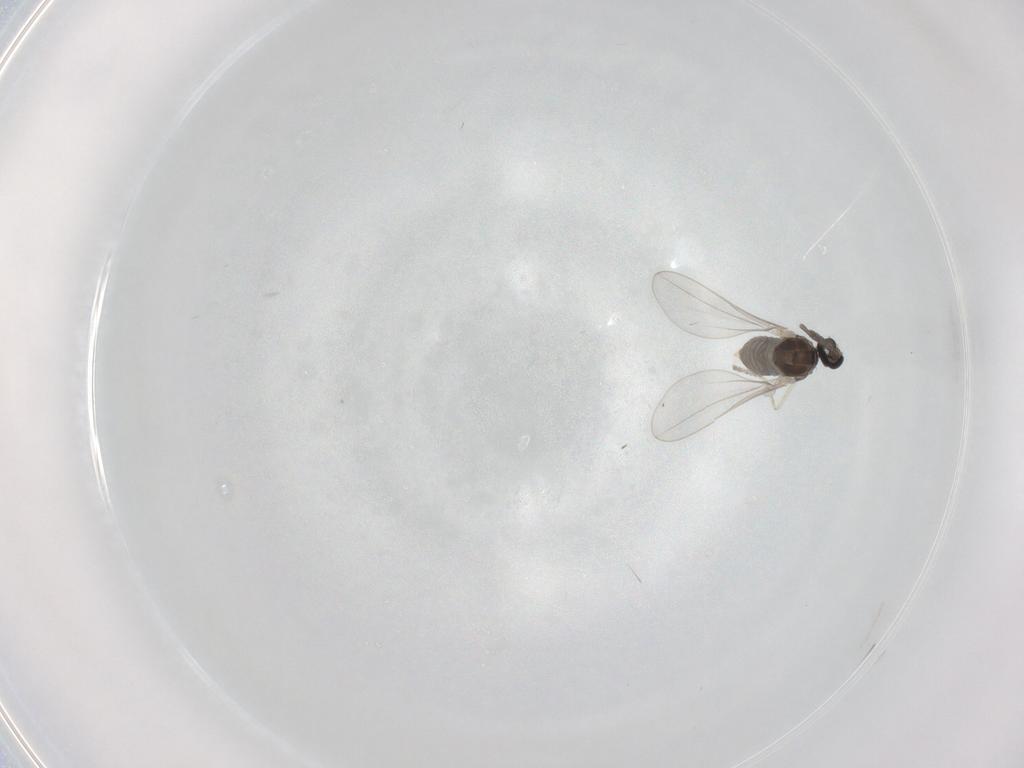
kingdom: Animalia
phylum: Arthropoda
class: Insecta
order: Diptera
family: Cecidomyiidae
